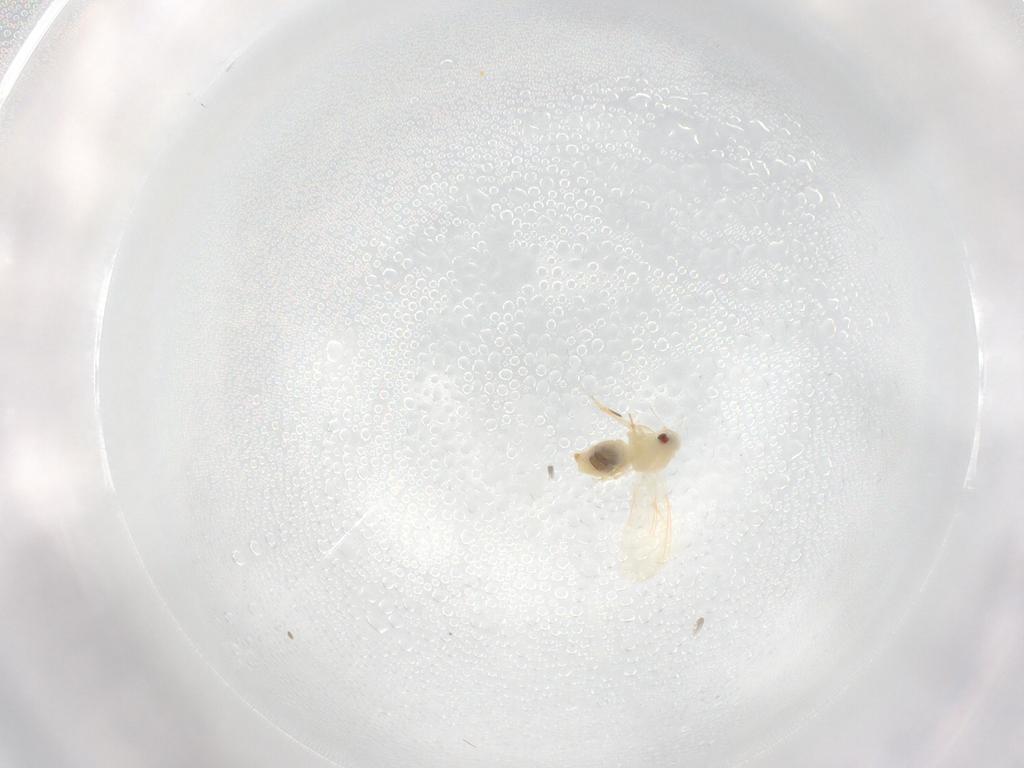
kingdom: Animalia
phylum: Arthropoda
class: Insecta
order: Hemiptera
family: Aleyrodidae
